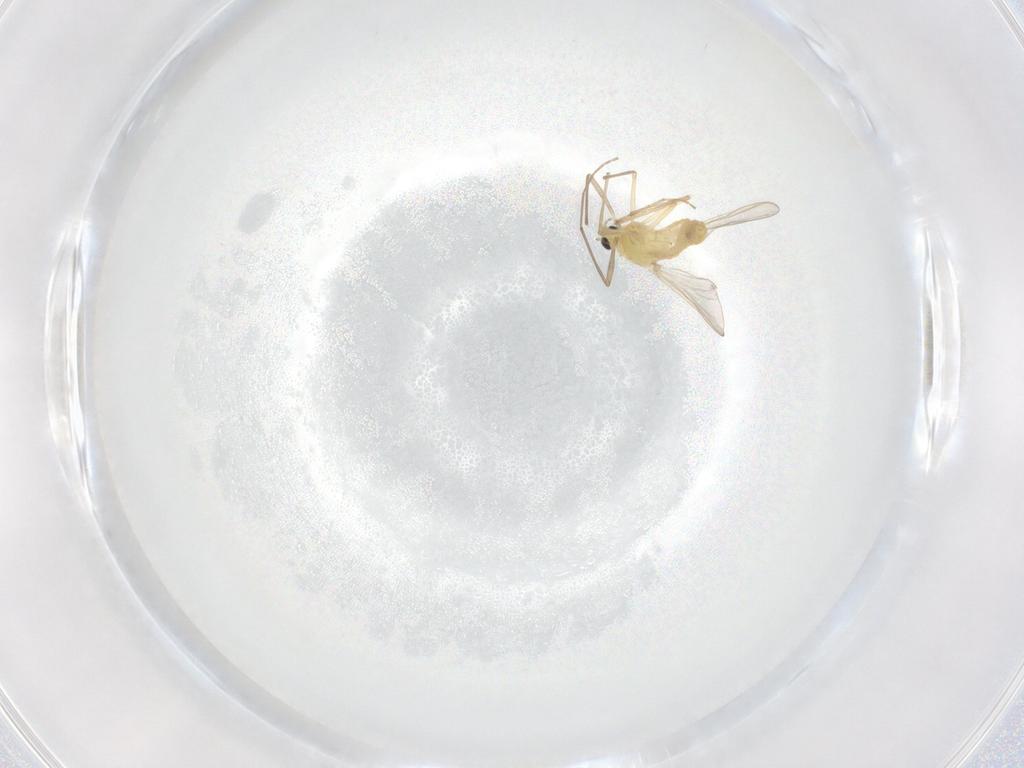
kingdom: Animalia
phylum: Arthropoda
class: Insecta
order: Diptera
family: Chironomidae
